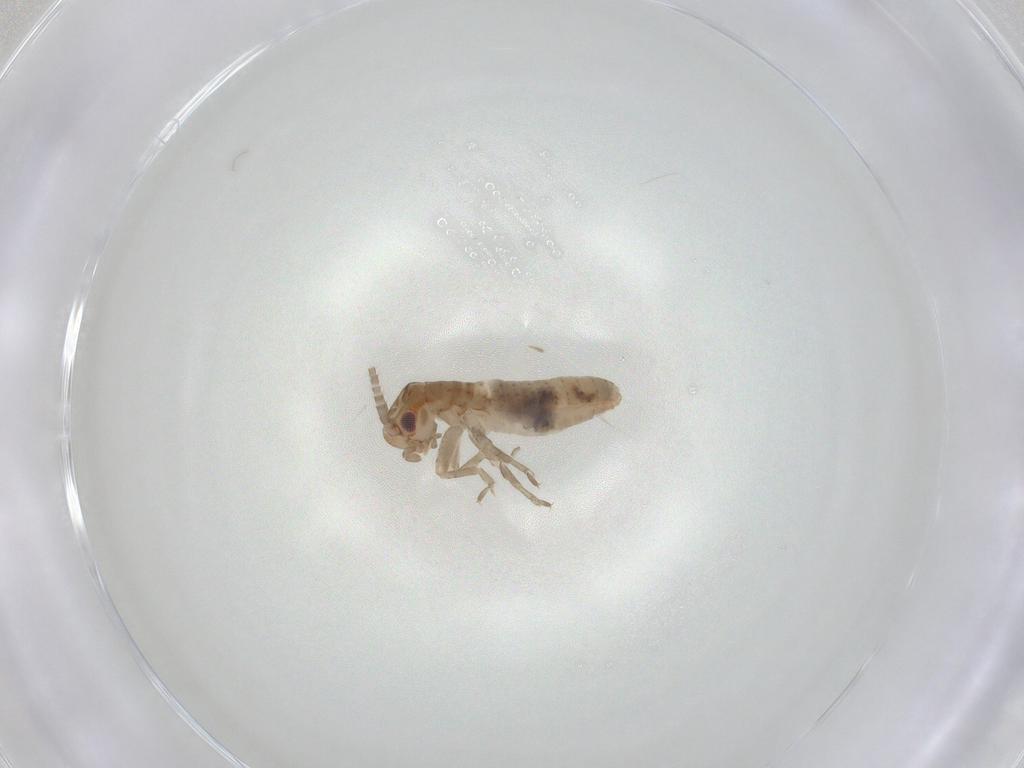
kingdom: Animalia
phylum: Arthropoda
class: Insecta
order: Orthoptera
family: Mogoplistidae
